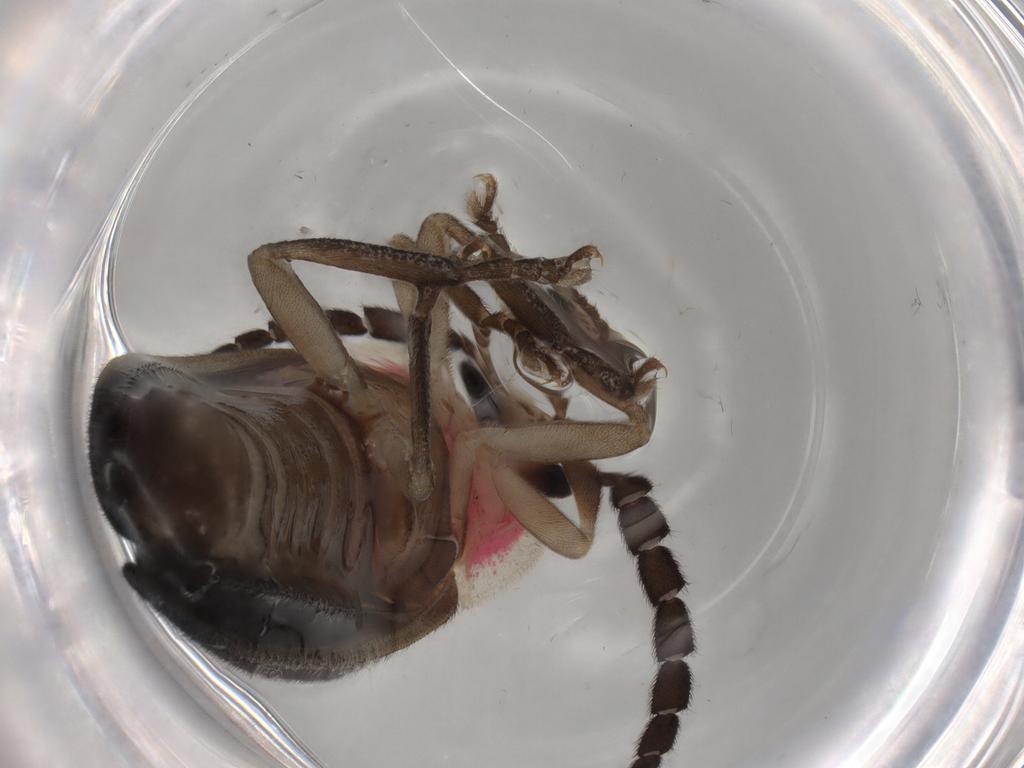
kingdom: Animalia
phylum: Arthropoda
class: Insecta
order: Coleoptera
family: Lampyridae
